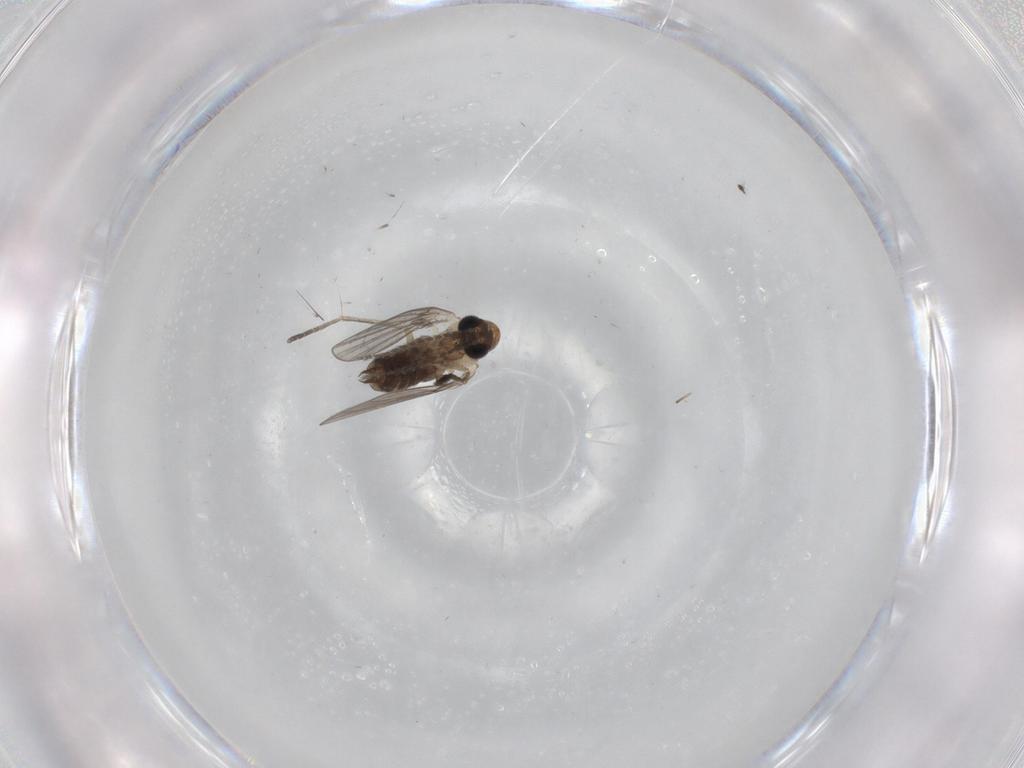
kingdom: Animalia
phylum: Arthropoda
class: Insecta
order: Diptera
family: Psychodidae
